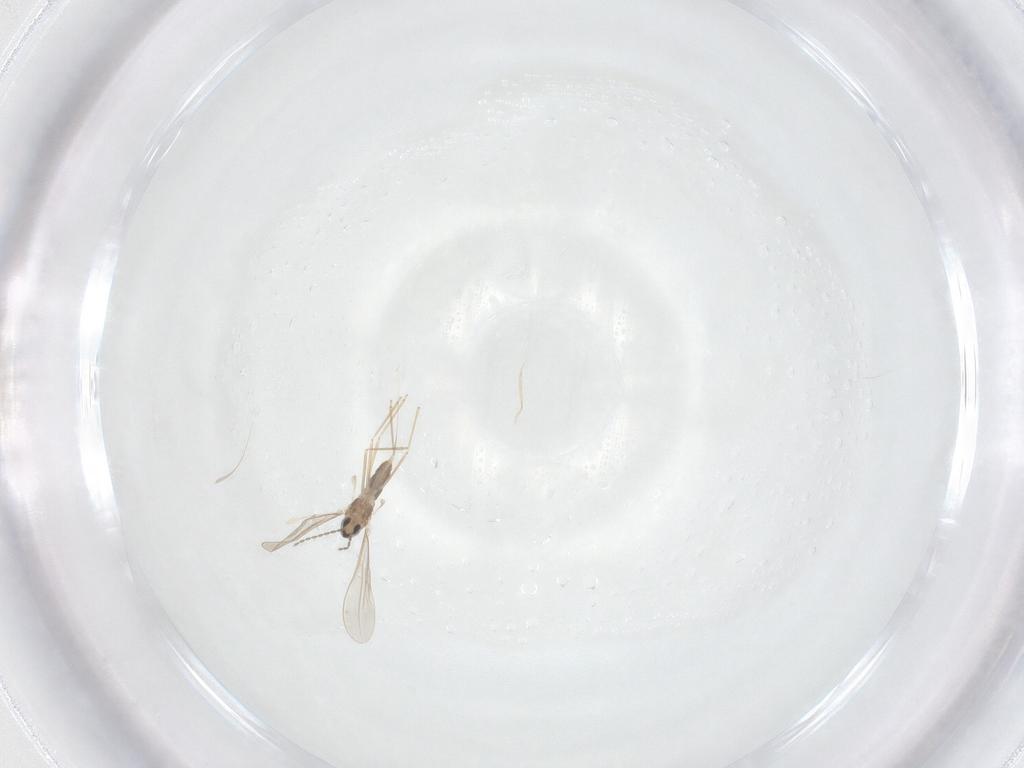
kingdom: Animalia
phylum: Arthropoda
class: Insecta
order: Diptera
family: Cecidomyiidae
